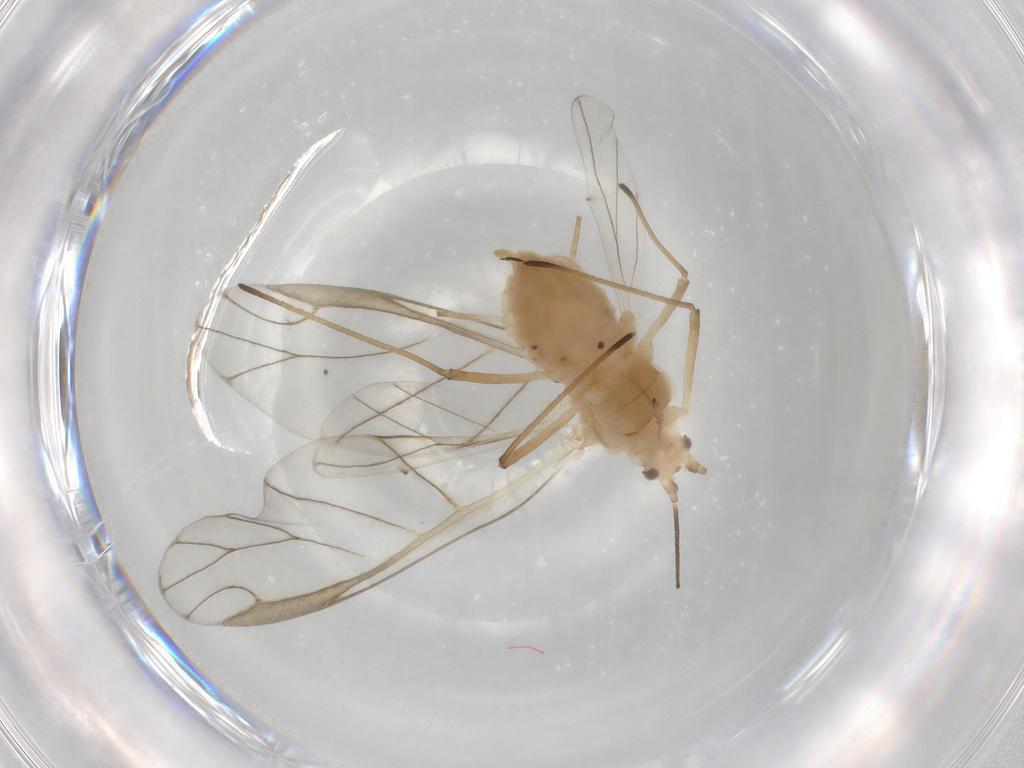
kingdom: Animalia
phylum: Arthropoda
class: Insecta
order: Hemiptera
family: Aphididae
